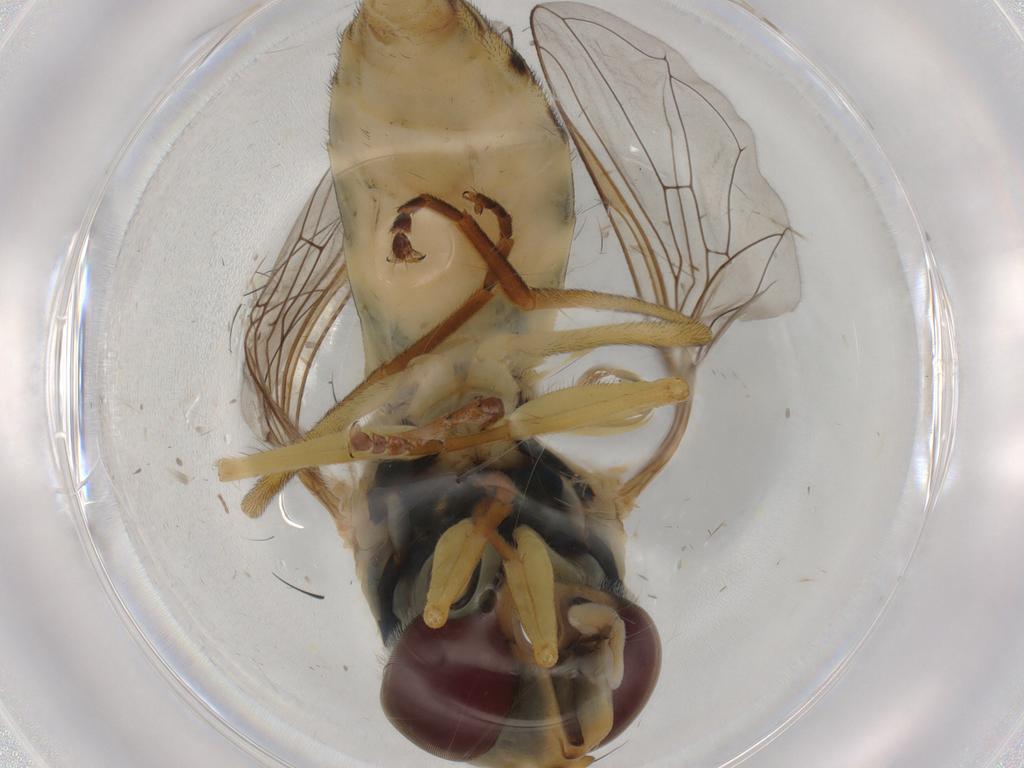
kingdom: Animalia
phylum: Arthropoda
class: Insecta
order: Diptera
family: Syrphidae
